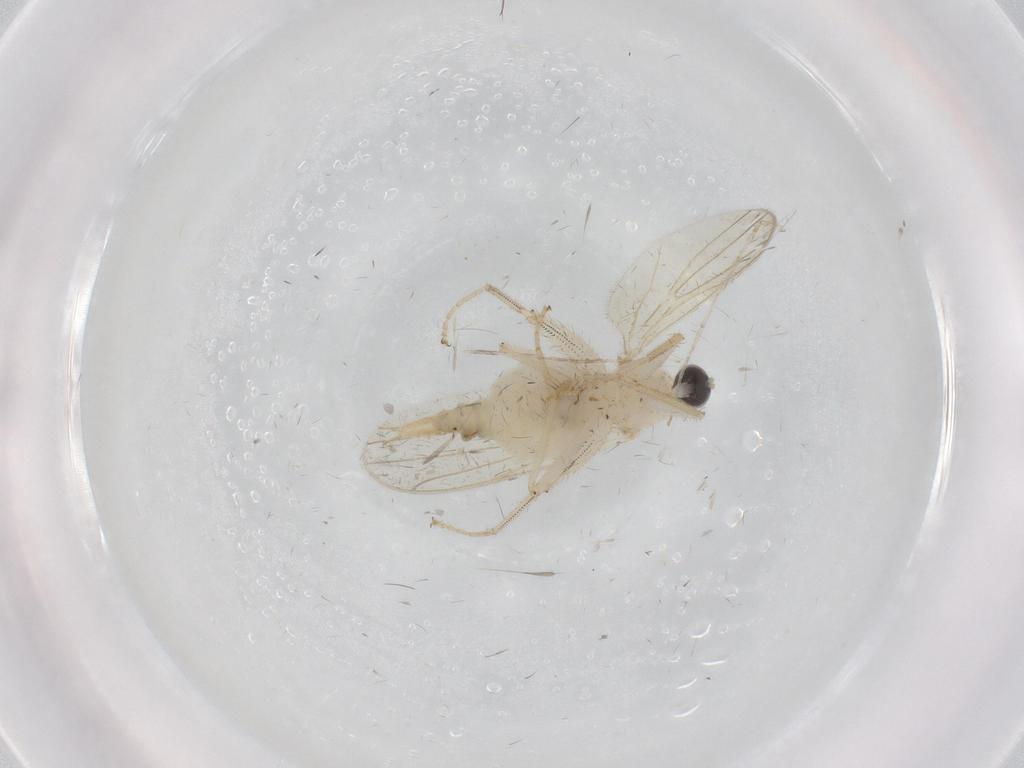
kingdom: Animalia
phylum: Arthropoda
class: Insecta
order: Diptera
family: Hybotidae
